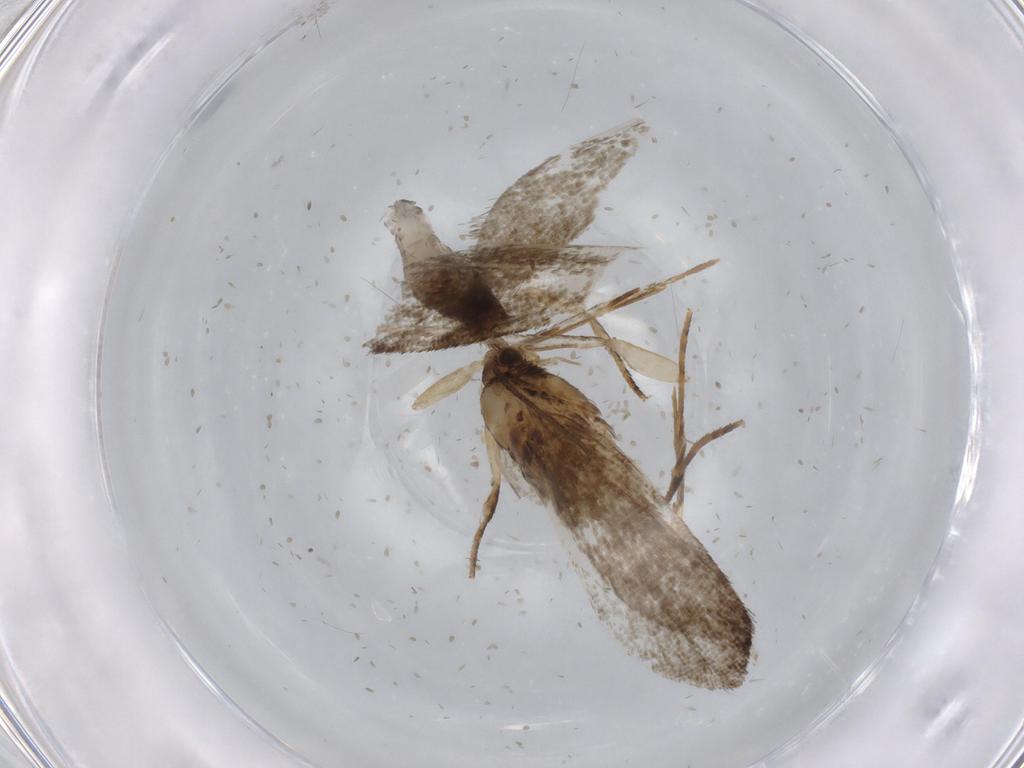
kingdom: Animalia
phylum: Arthropoda
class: Insecta
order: Lepidoptera
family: Tineidae
